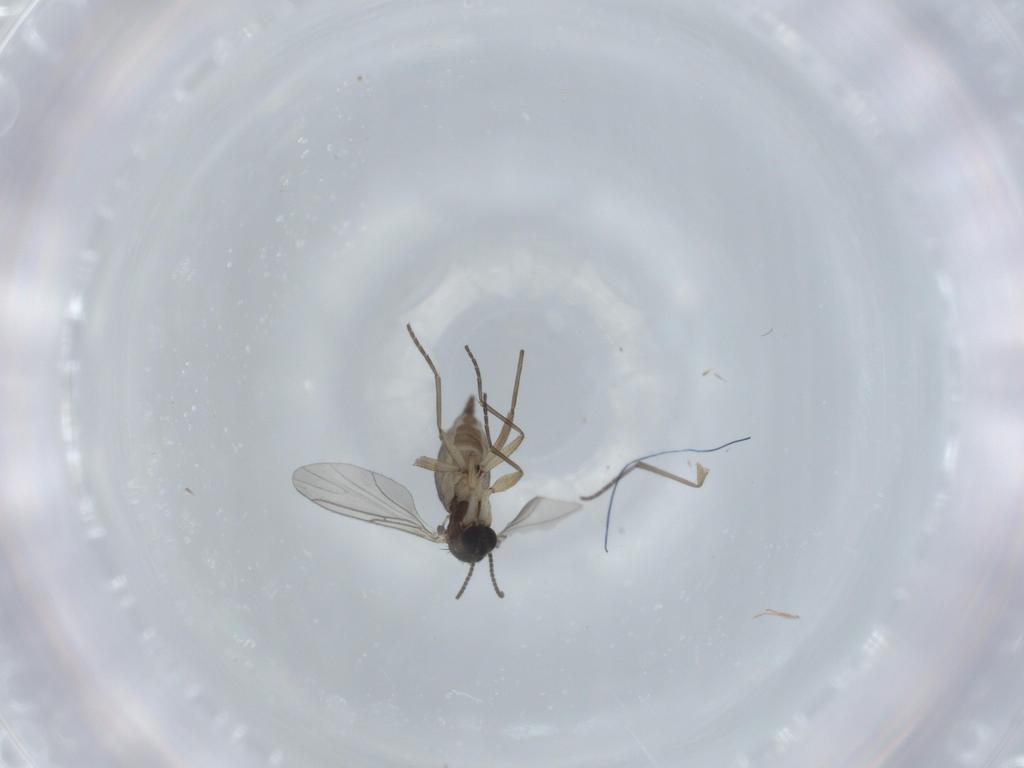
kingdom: Animalia
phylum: Arthropoda
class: Insecta
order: Diptera
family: Sciaridae
